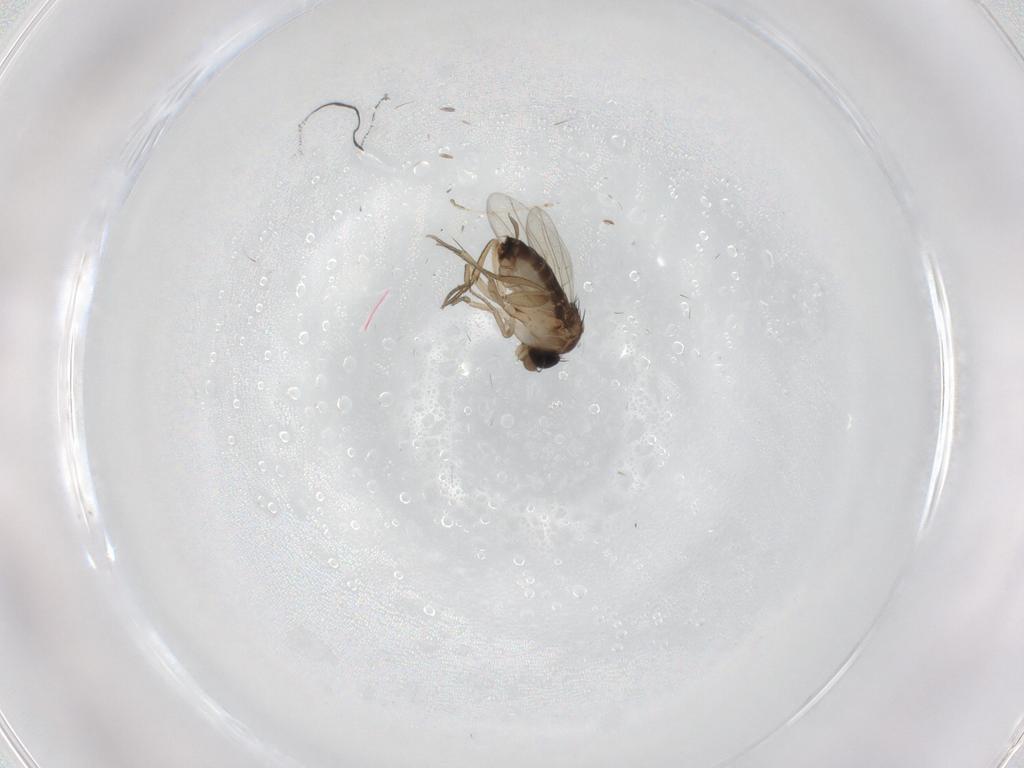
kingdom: Animalia
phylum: Arthropoda
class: Insecta
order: Diptera
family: Cecidomyiidae
